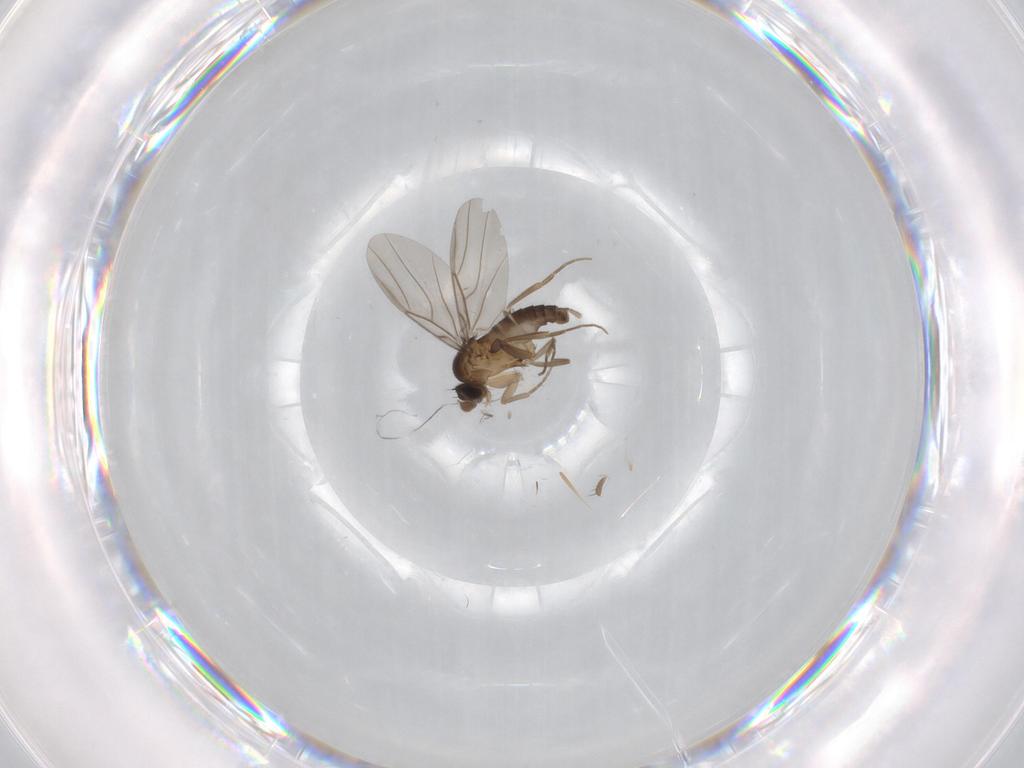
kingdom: Animalia
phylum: Arthropoda
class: Insecta
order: Diptera
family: Phoridae
